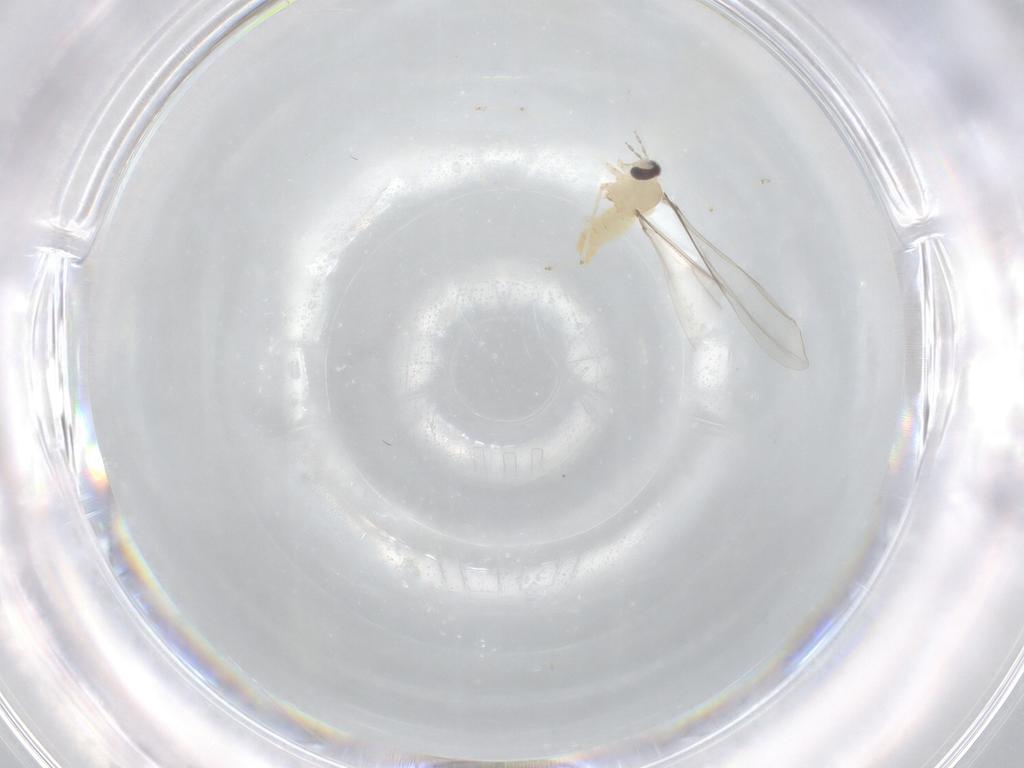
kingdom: Animalia
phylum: Arthropoda
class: Insecta
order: Diptera
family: Cecidomyiidae
